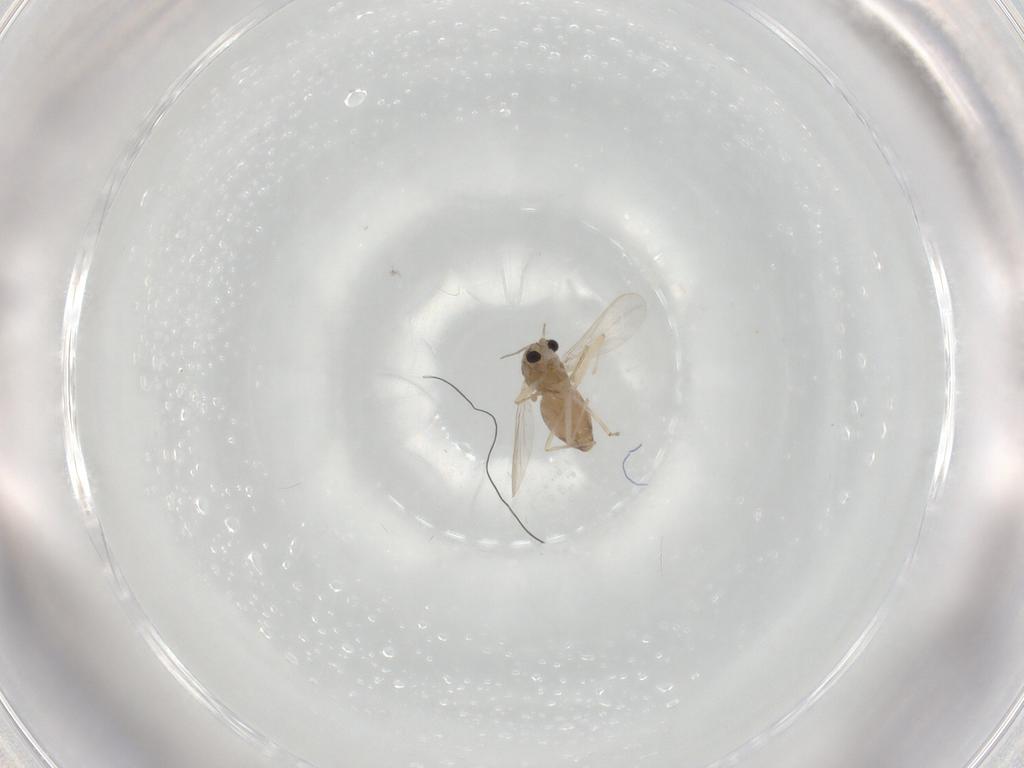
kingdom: Animalia
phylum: Arthropoda
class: Insecta
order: Diptera
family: Chironomidae
